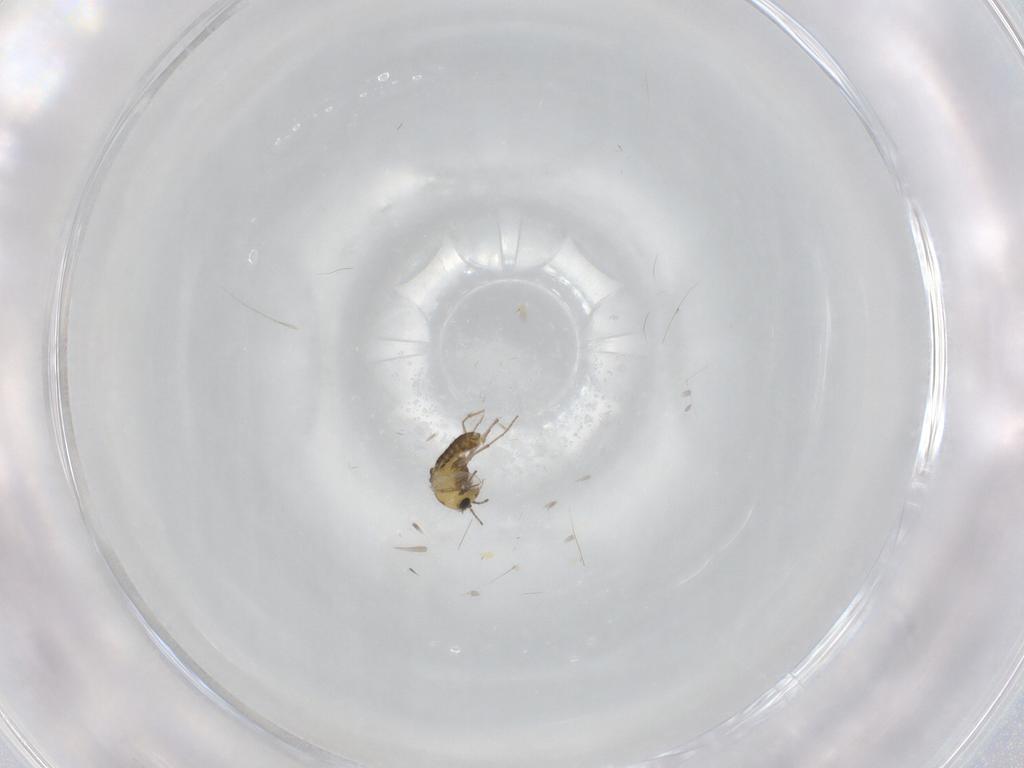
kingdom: Animalia
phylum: Arthropoda
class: Insecta
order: Diptera
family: Chironomidae
